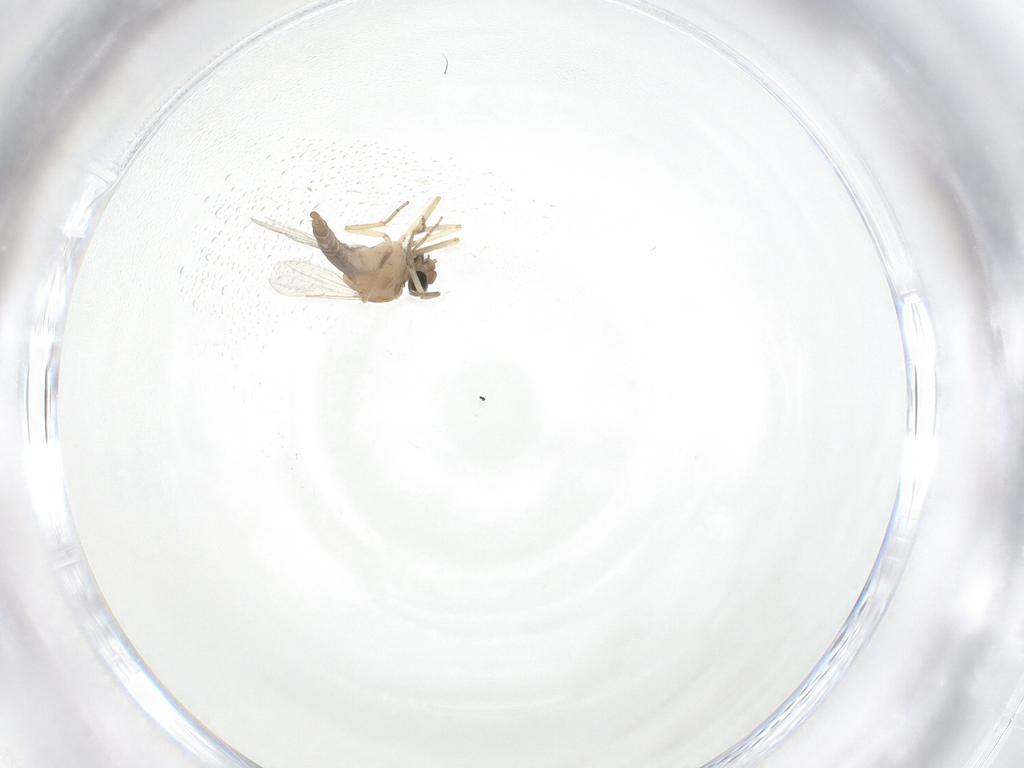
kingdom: Animalia
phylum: Arthropoda
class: Insecta
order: Diptera
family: Ceratopogonidae
